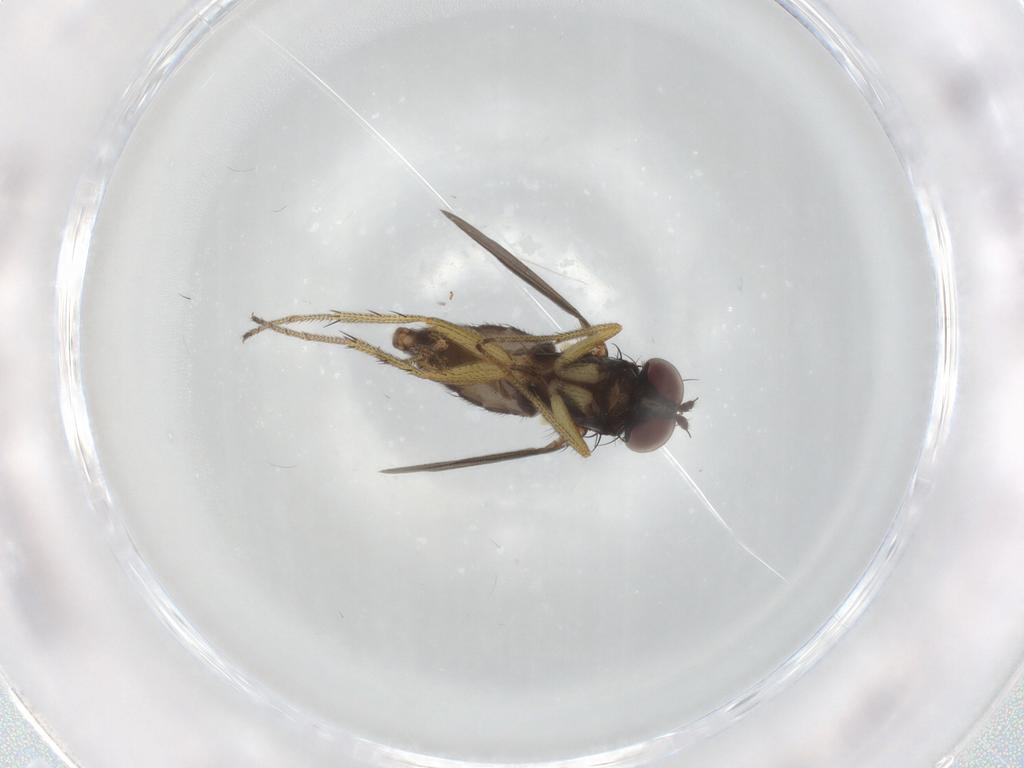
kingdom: Animalia
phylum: Arthropoda
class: Insecta
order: Diptera
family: Dolichopodidae
